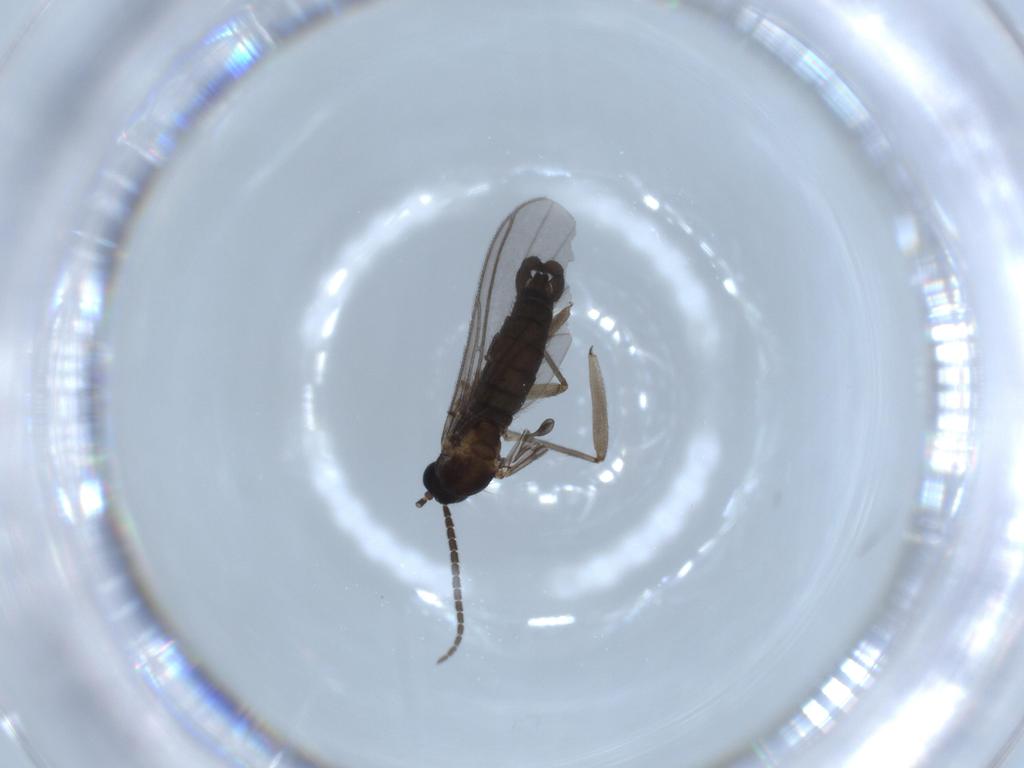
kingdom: Animalia
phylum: Arthropoda
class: Insecta
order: Diptera
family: Sciaridae
